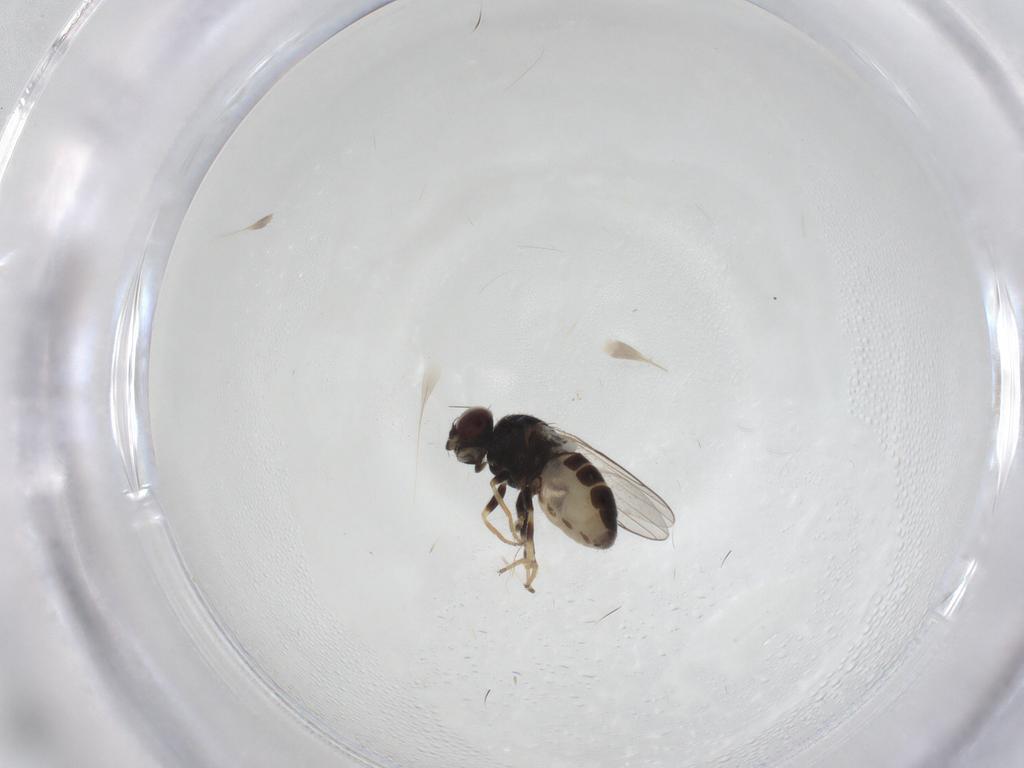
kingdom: Animalia
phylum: Arthropoda
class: Insecta
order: Diptera
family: Chloropidae
